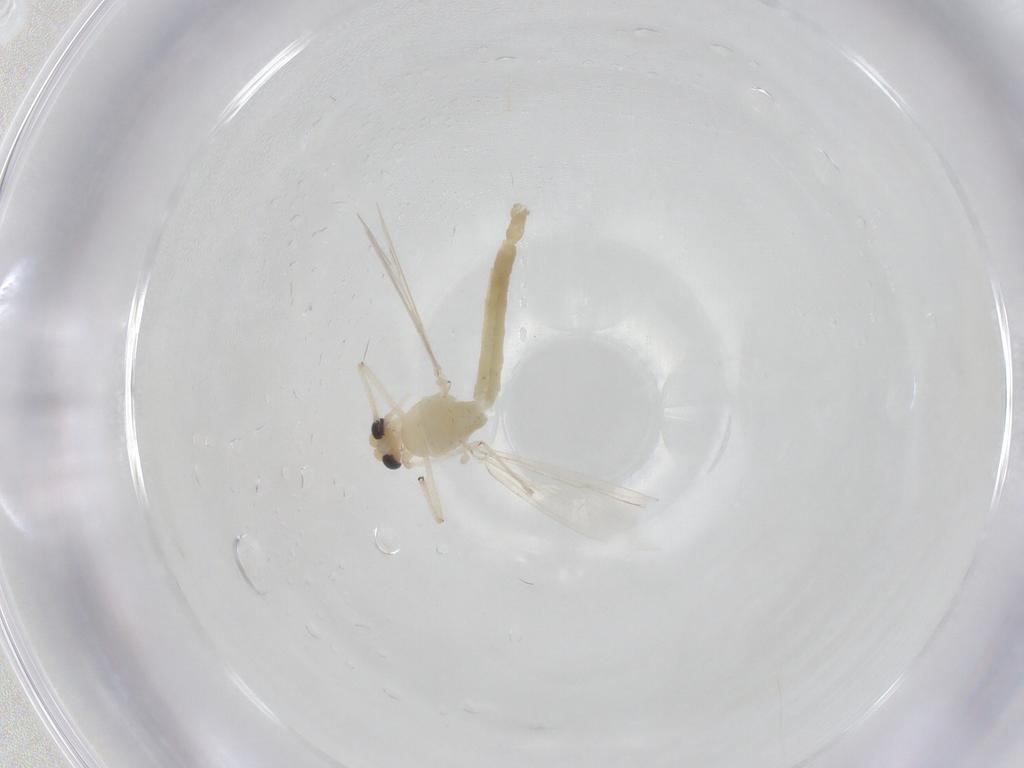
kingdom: Animalia
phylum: Arthropoda
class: Insecta
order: Diptera
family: Chironomidae
